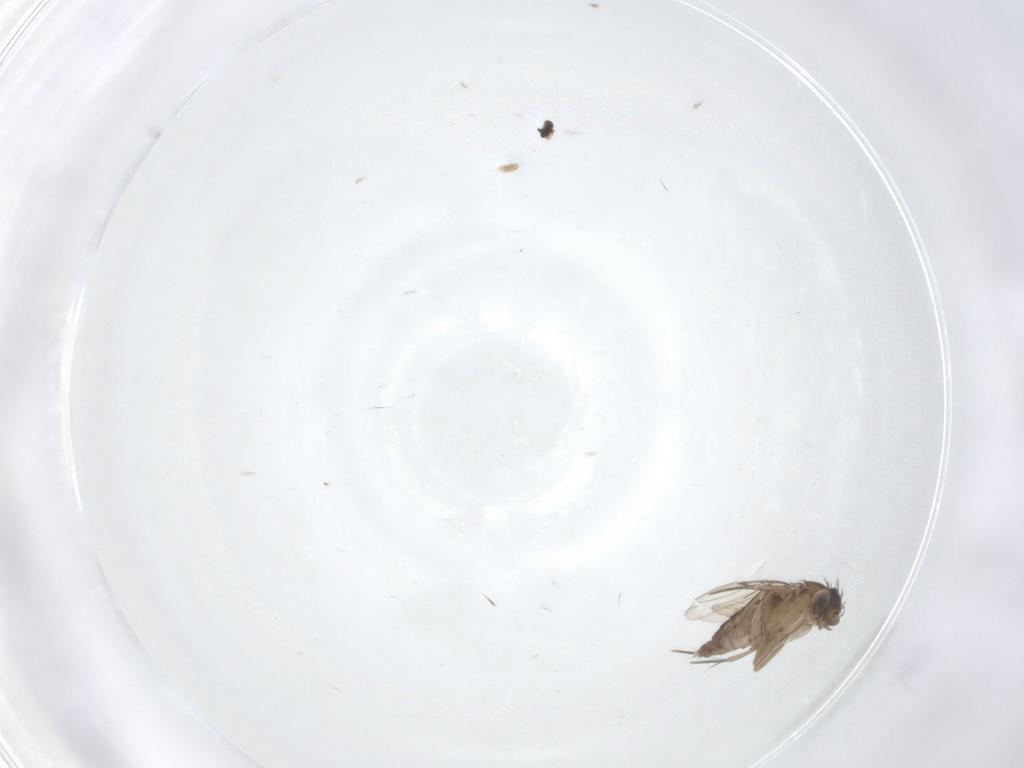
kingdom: Animalia
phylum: Arthropoda
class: Insecta
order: Diptera
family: Phoridae
